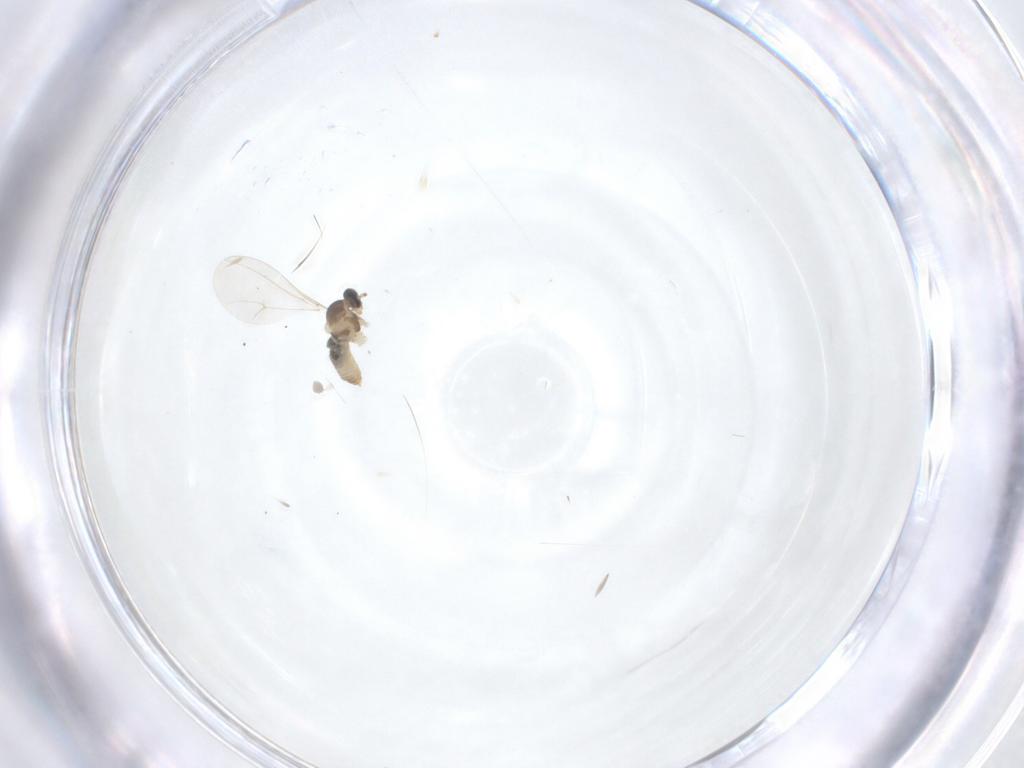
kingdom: Animalia
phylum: Arthropoda
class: Insecta
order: Diptera
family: Cecidomyiidae
